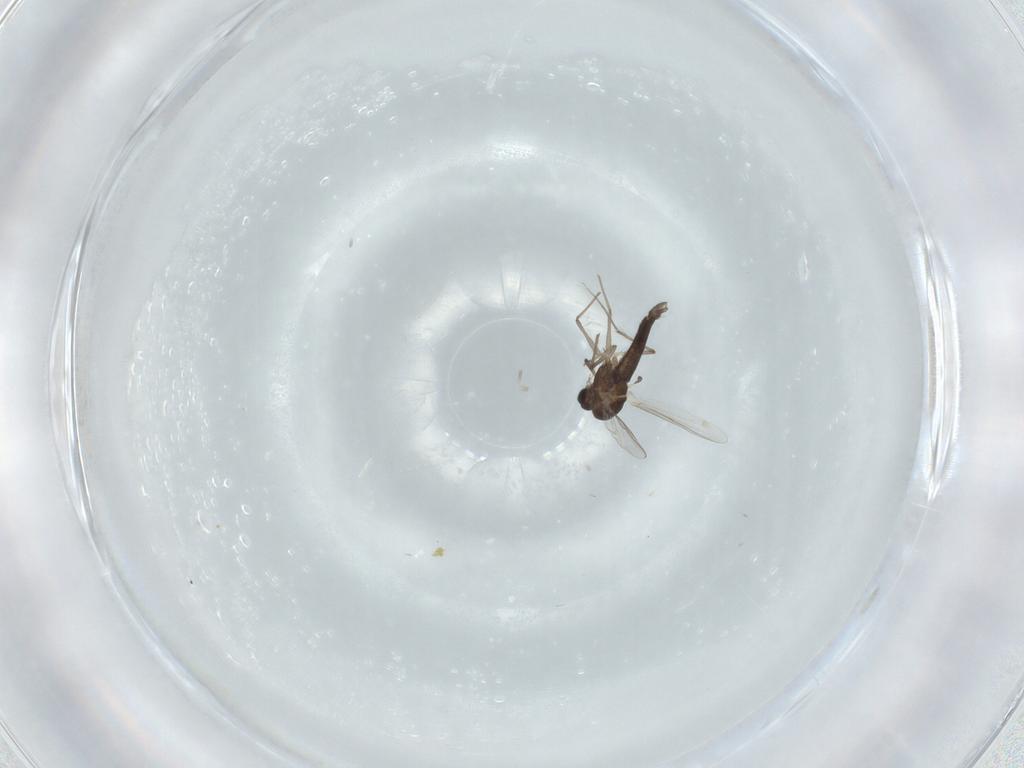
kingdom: Animalia
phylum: Arthropoda
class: Insecta
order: Diptera
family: Chironomidae
